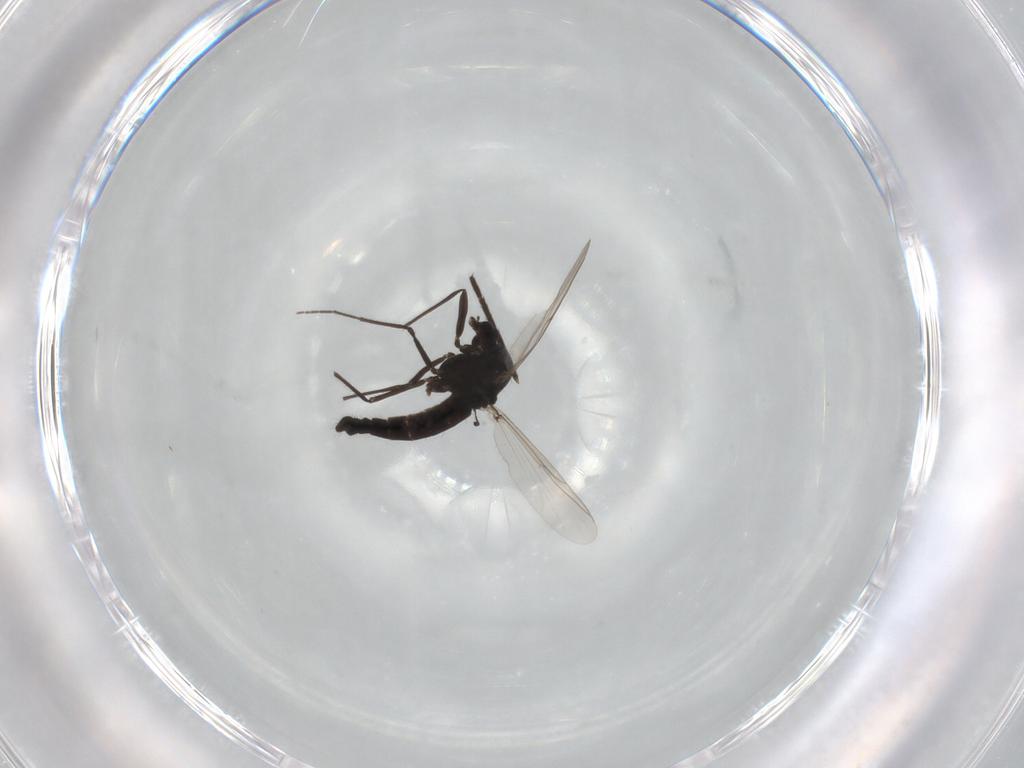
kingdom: Animalia
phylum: Arthropoda
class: Insecta
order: Diptera
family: Chironomidae
